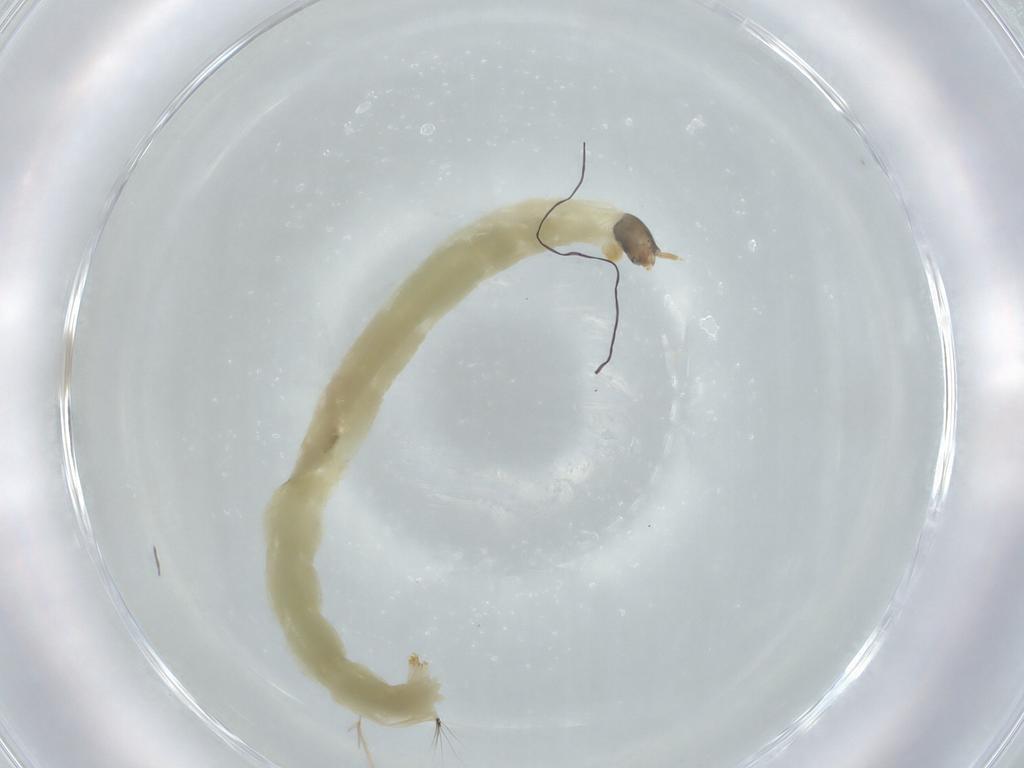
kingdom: Animalia
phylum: Arthropoda
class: Insecta
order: Diptera
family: Chironomidae
